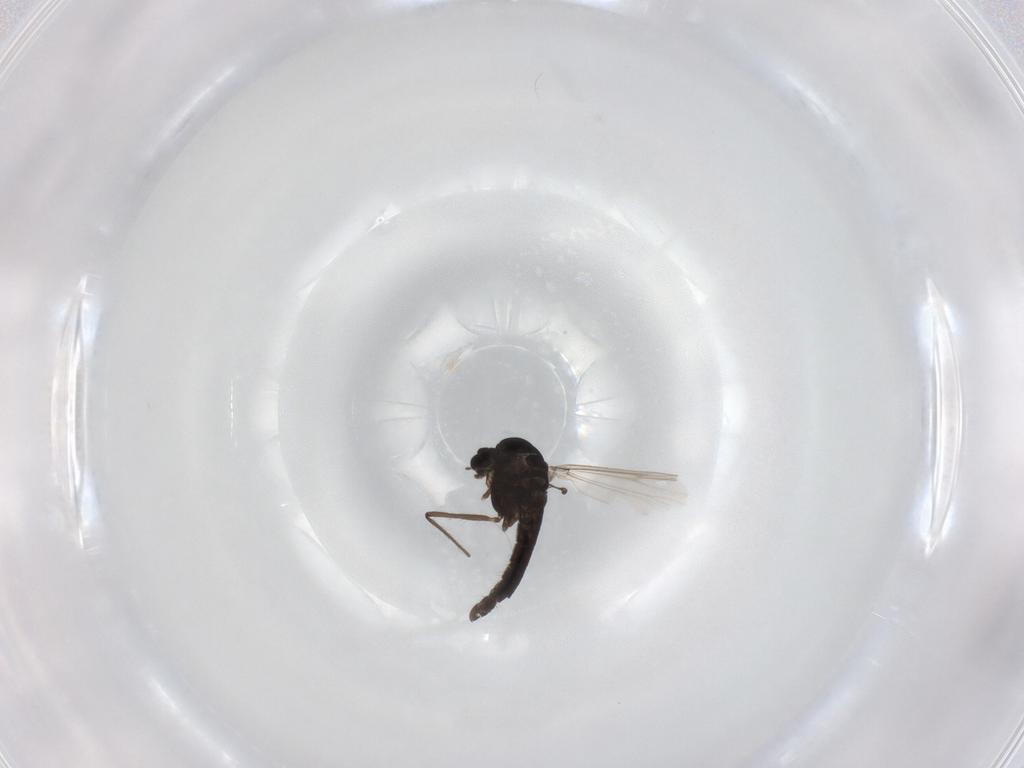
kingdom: Animalia
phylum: Arthropoda
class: Insecta
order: Diptera
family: Chironomidae
